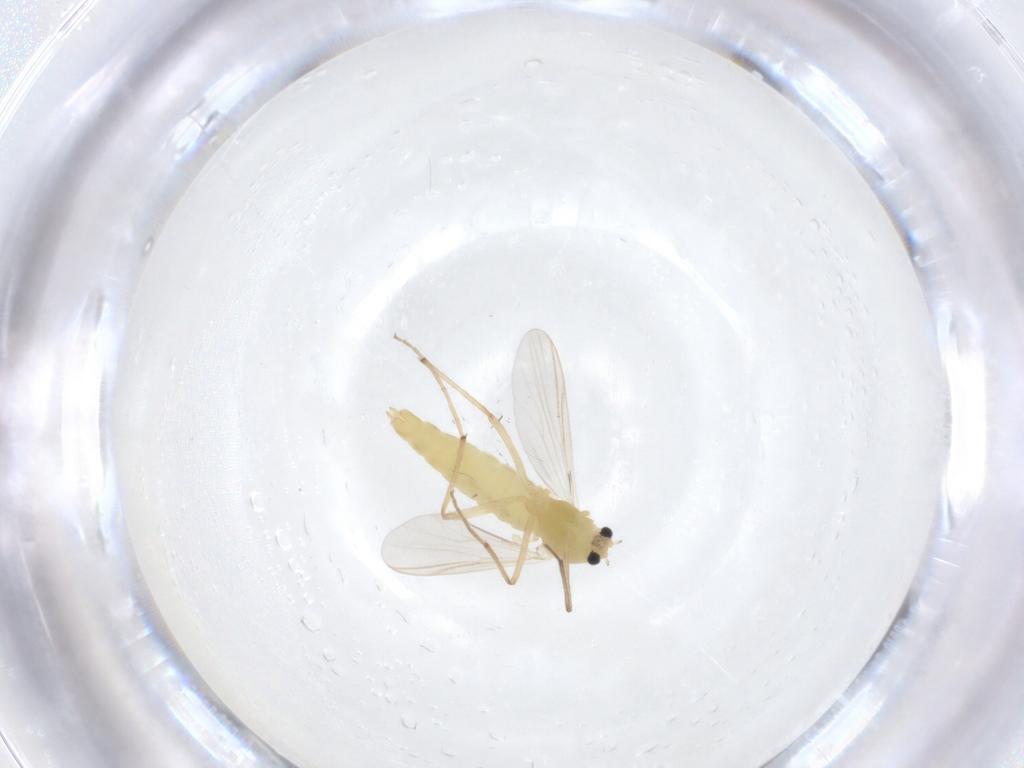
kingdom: Animalia
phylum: Arthropoda
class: Insecta
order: Diptera
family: Chironomidae
